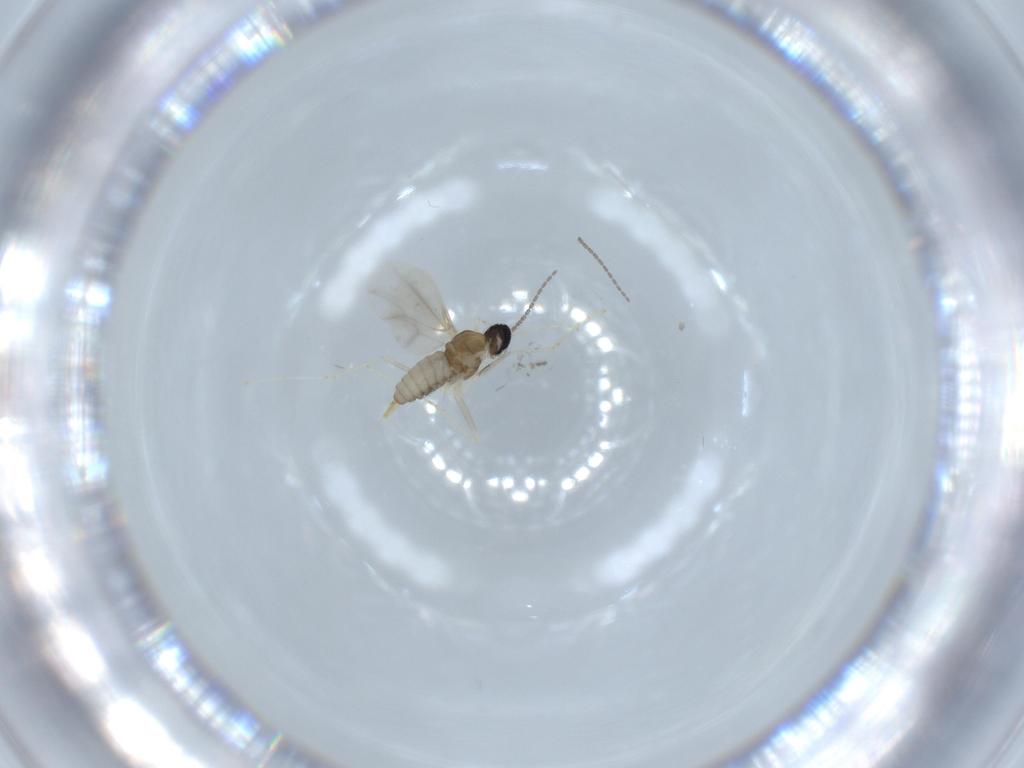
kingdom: Animalia
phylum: Arthropoda
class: Insecta
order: Diptera
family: Cecidomyiidae
